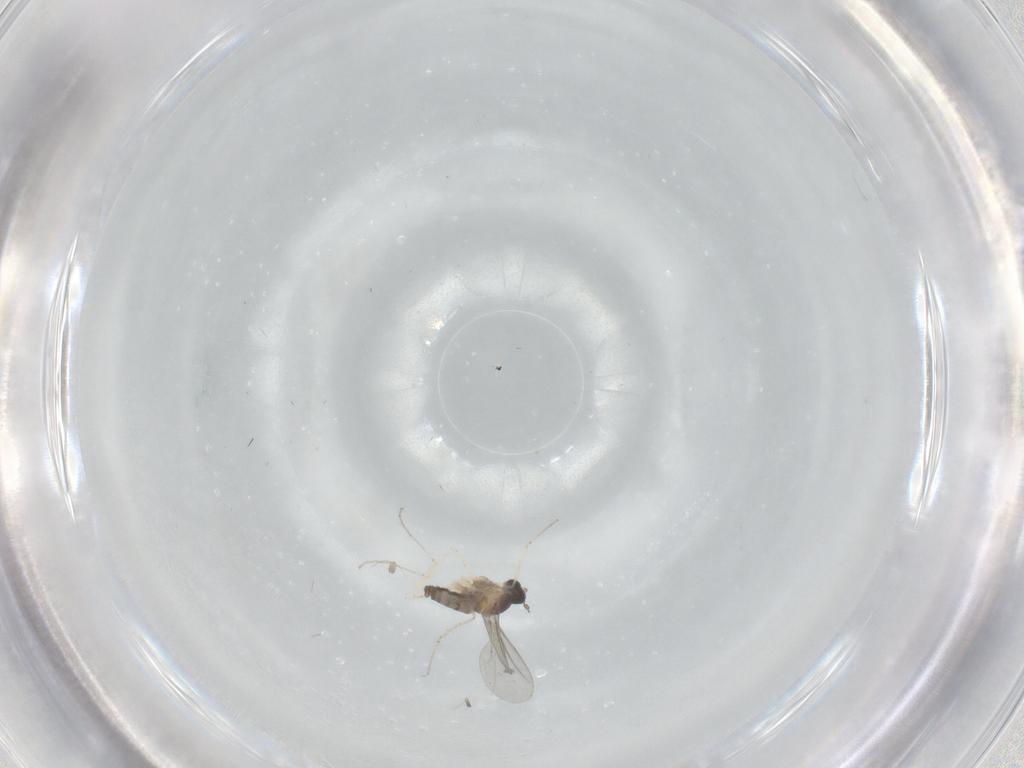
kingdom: Animalia
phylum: Arthropoda
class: Insecta
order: Diptera
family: Cecidomyiidae
